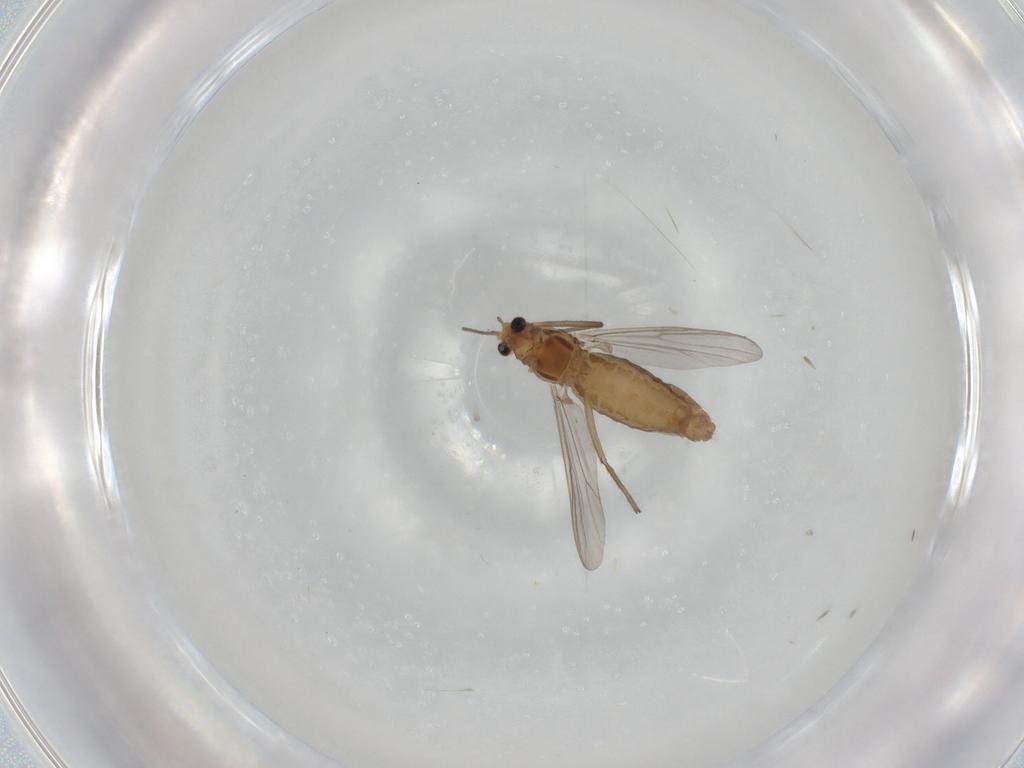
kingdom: Animalia
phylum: Arthropoda
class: Insecta
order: Diptera
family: Chironomidae
